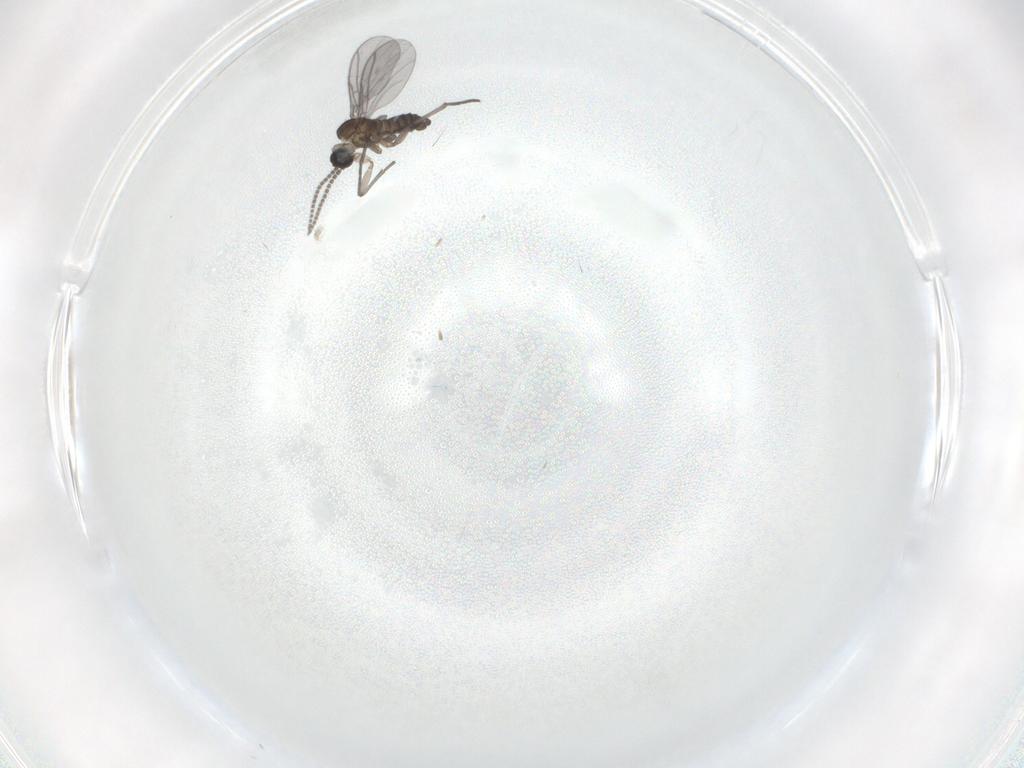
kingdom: Animalia
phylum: Arthropoda
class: Insecta
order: Diptera
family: Sciaridae
